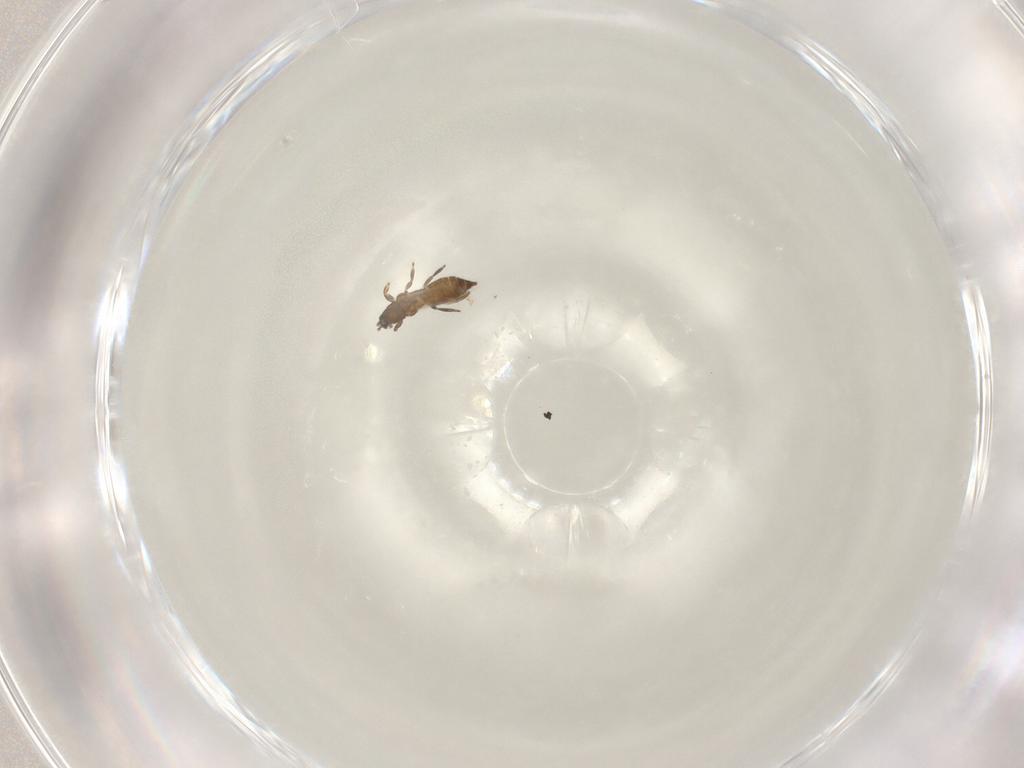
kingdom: Animalia
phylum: Arthropoda
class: Insecta
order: Thysanoptera
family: Heterothripidae
